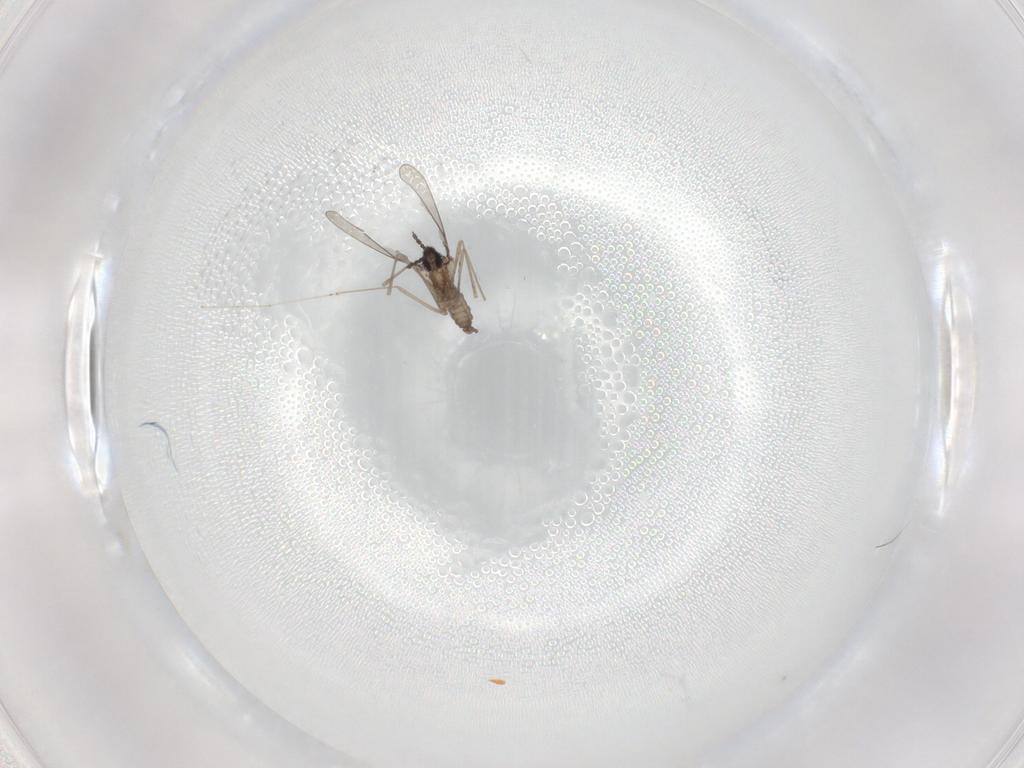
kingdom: Animalia
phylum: Arthropoda
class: Insecta
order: Diptera
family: Cecidomyiidae
